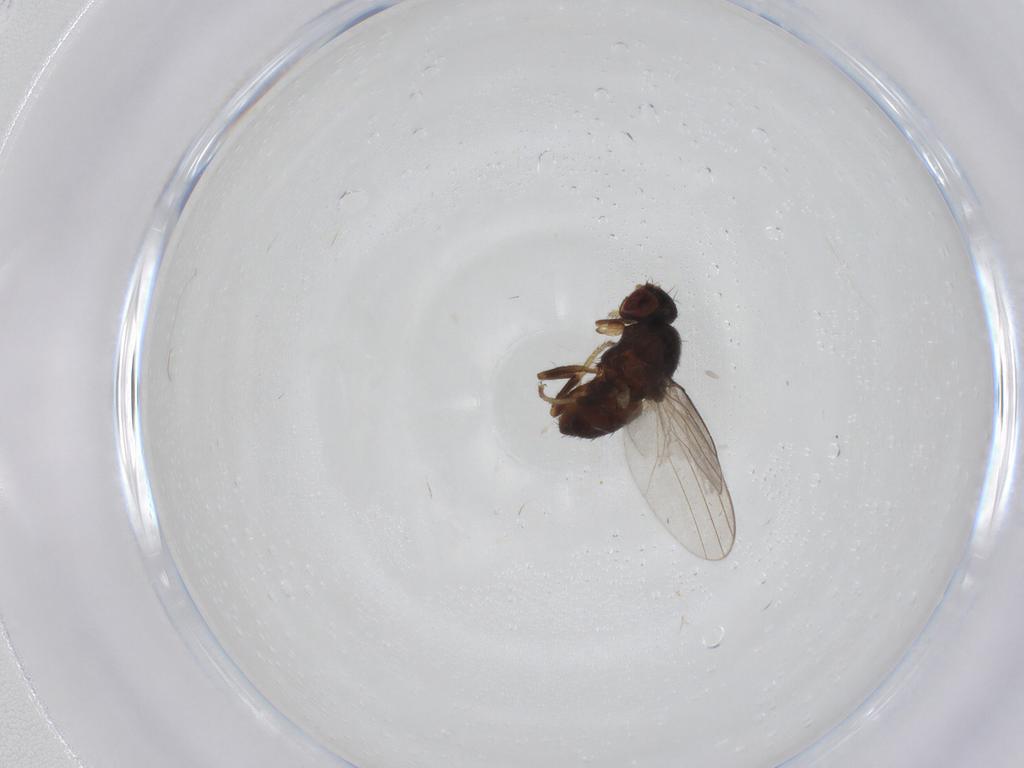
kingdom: Animalia
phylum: Arthropoda
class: Insecta
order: Diptera
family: Milichiidae
